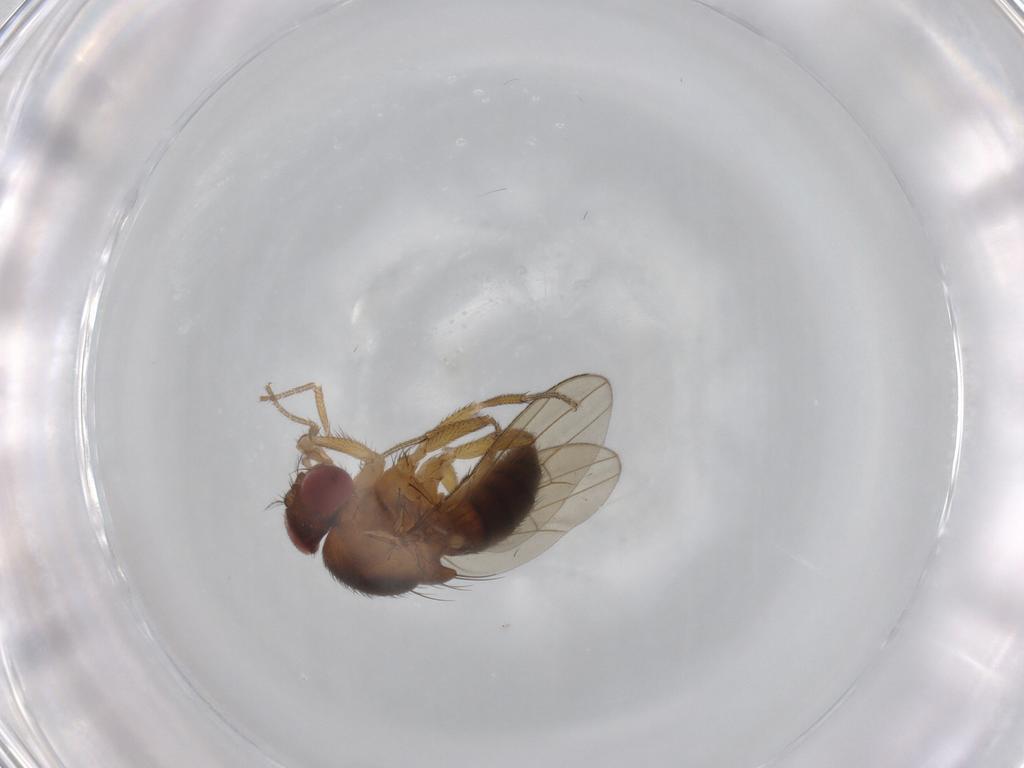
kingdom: Animalia
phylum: Arthropoda
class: Insecta
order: Diptera
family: Drosophilidae
